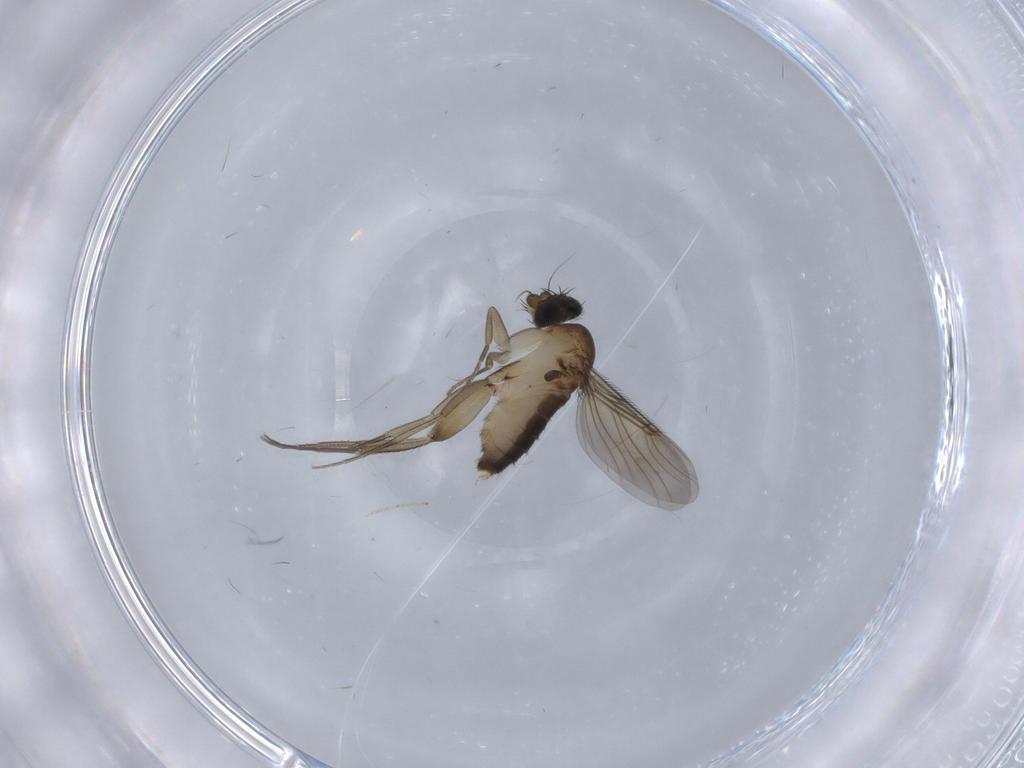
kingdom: Animalia
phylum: Arthropoda
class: Insecta
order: Diptera
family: Phoridae
